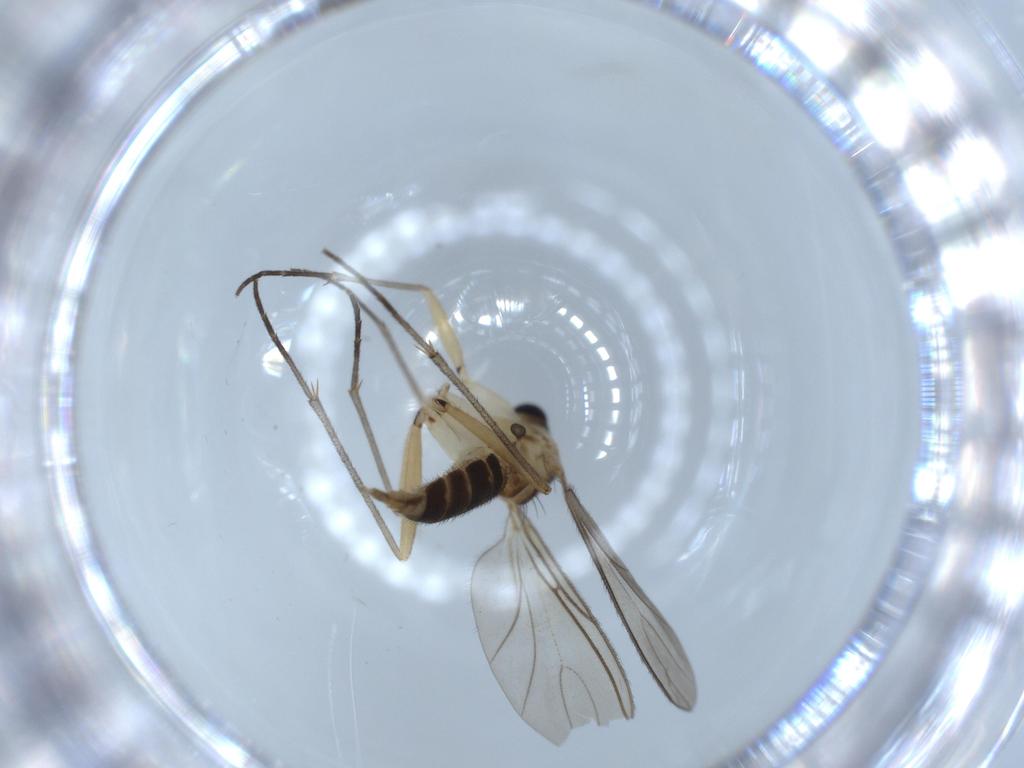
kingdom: Animalia
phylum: Arthropoda
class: Insecta
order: Diptera
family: Sciaridae
